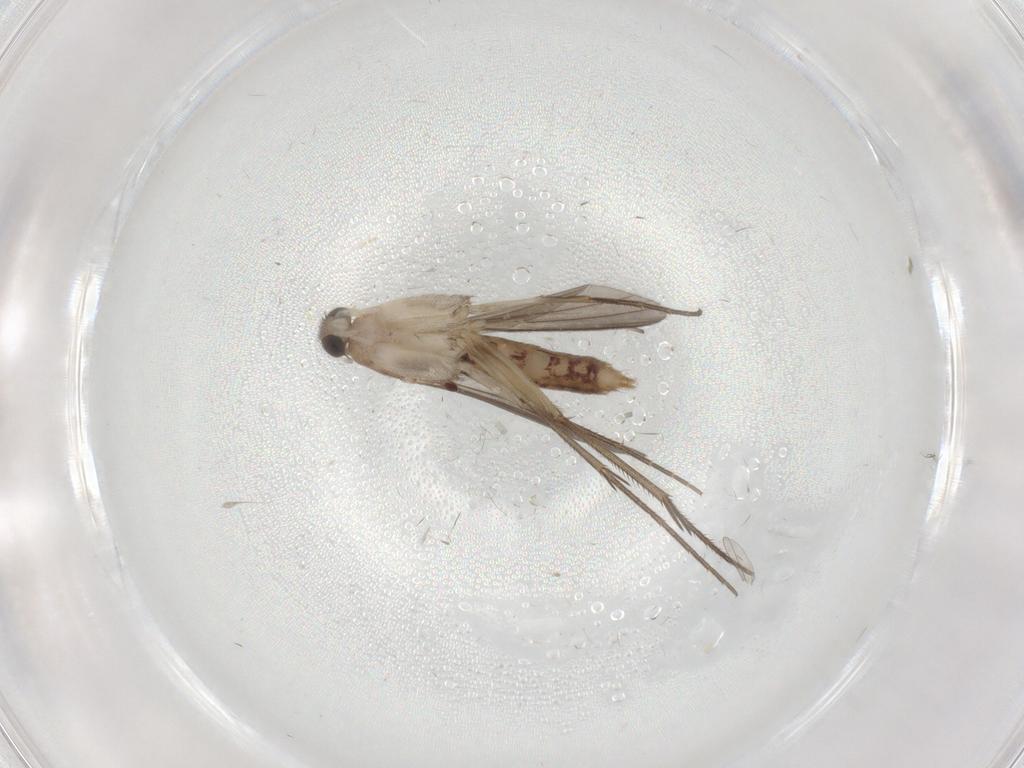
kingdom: Animalia
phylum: Arthropoda
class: Insecta
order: Diptera
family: Mycetophilidae
